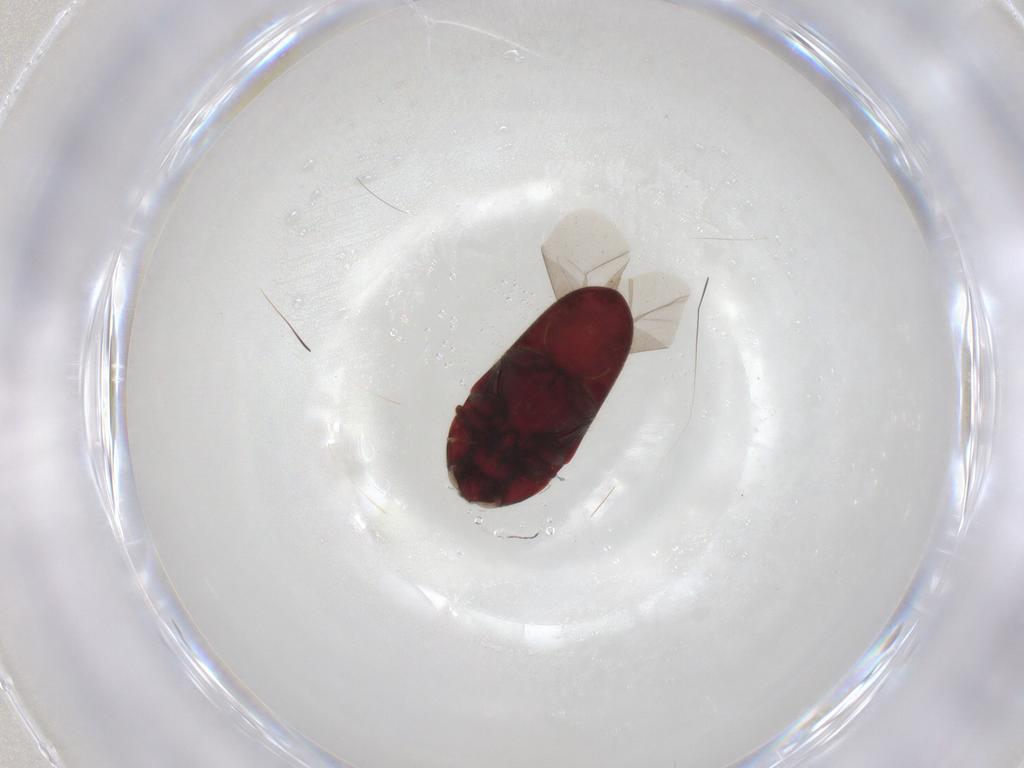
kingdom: Animalia
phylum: Arthropoda
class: Insecta
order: Coleoptera
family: Throscidae
